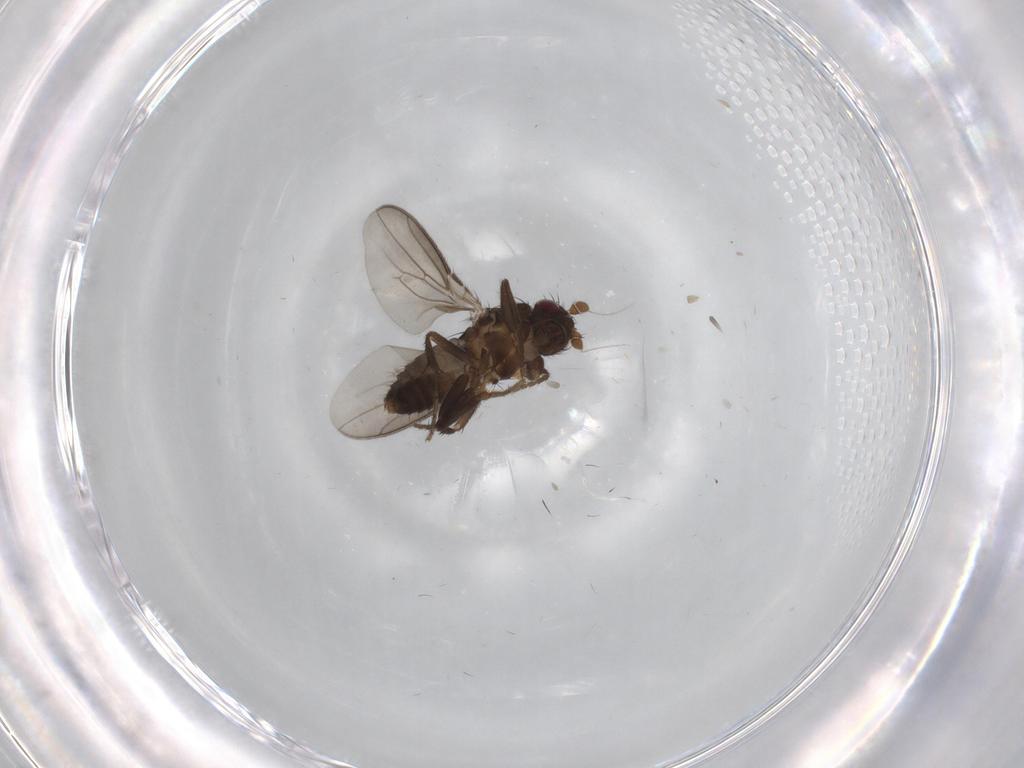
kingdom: Animalia
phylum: Arthropoda
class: Insecta
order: Diptera
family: Sphaeroceridae
